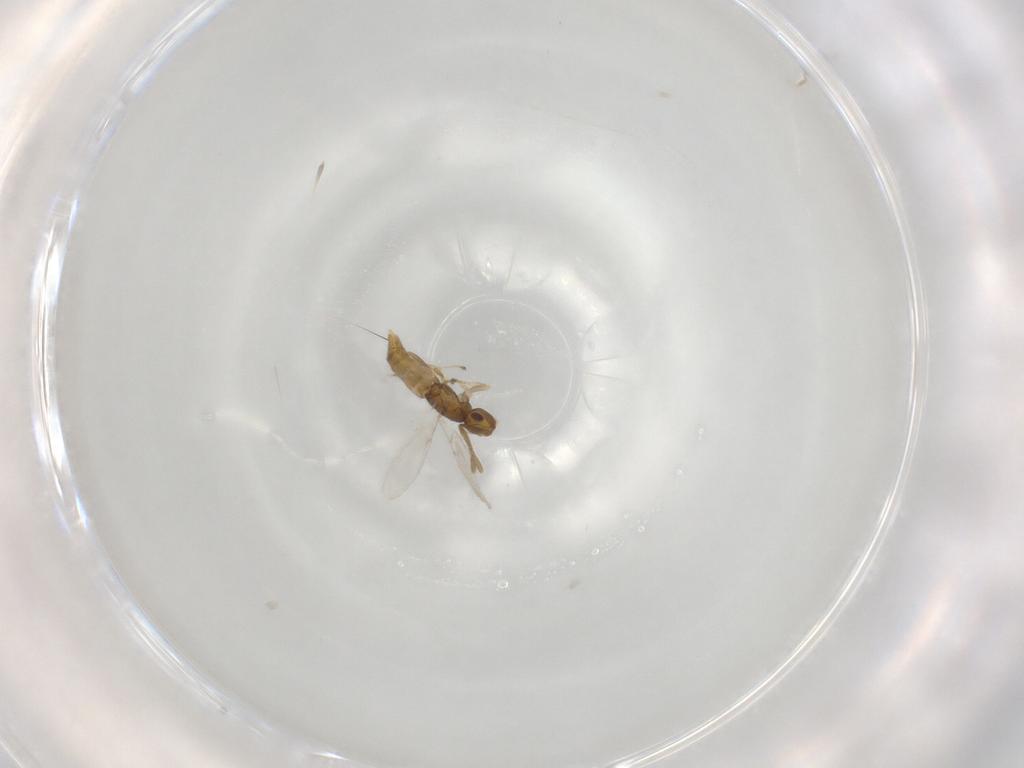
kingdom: Animalia
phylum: Arthropoda
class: Insecta
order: Hymenoptera
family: Encyrtidae
